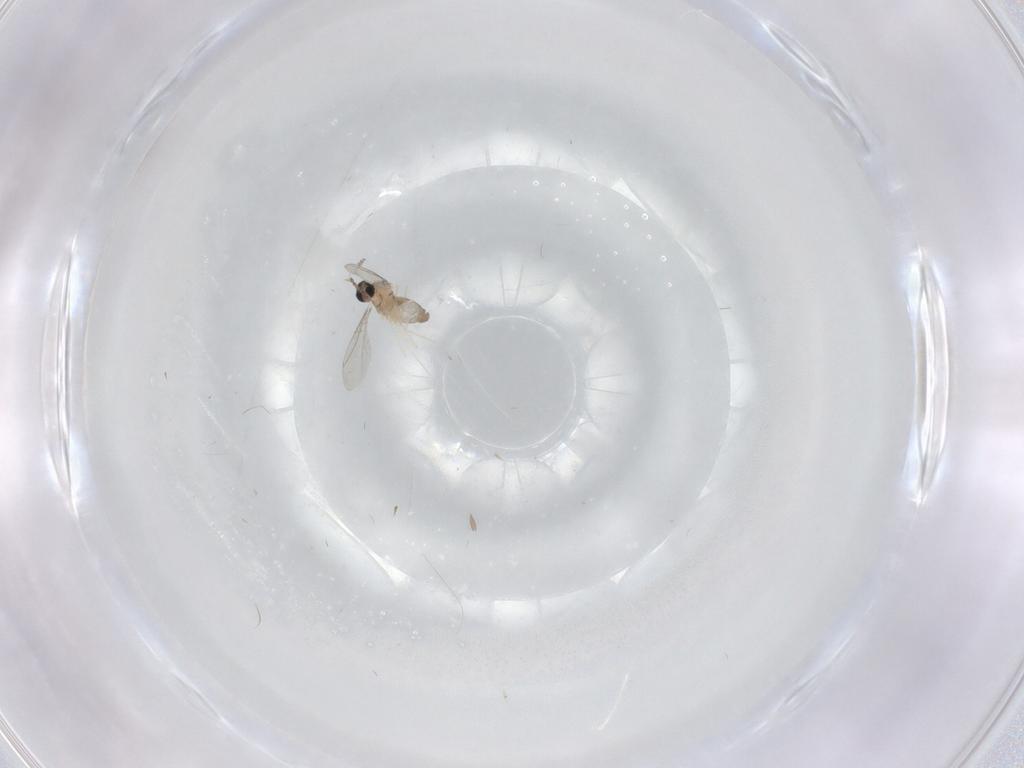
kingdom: Animalia
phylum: Arthropoda
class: Insecta
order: Diptera
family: Cecidomyiidae
